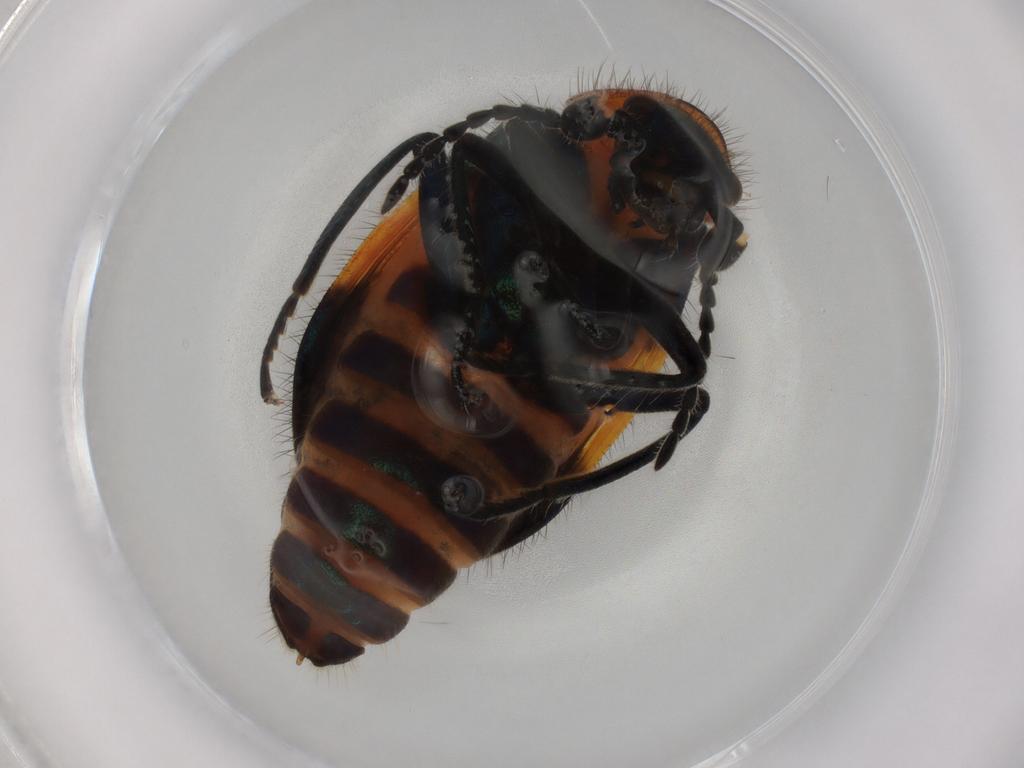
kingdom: Animalia
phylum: Arthropoda
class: Insecta
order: Coleoptera
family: Melyridae
